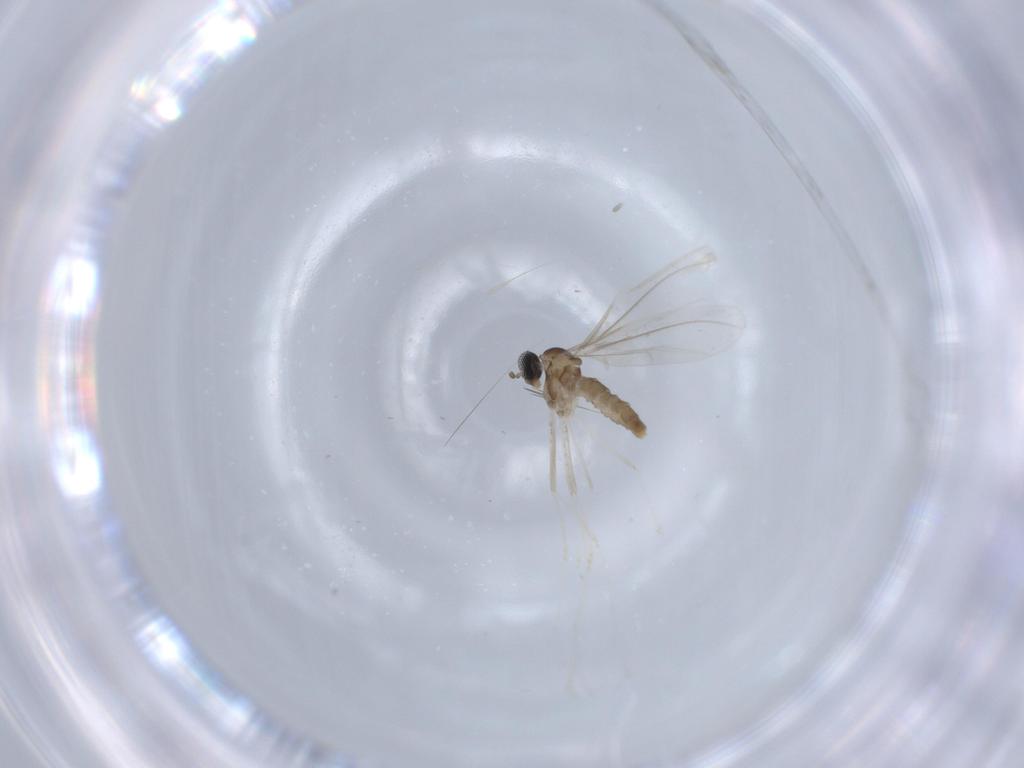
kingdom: Animalia
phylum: Arthropoda
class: Insecta
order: Diptera
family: Cecidomyiidae
